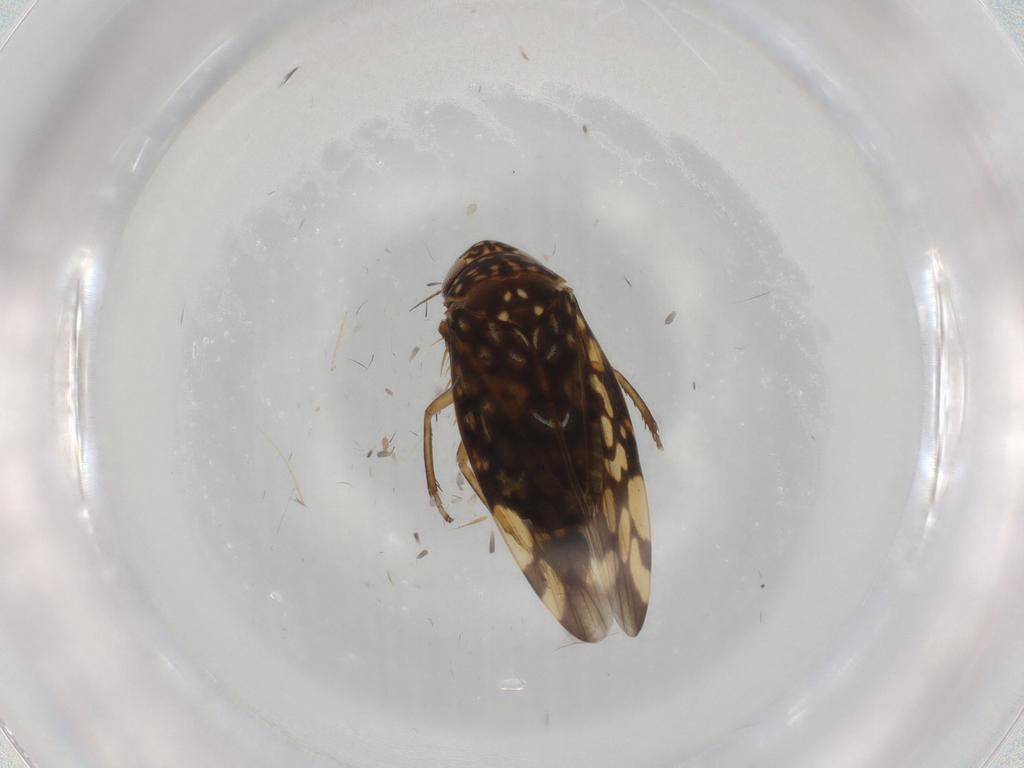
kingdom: Animalia
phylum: Arthropoda
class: Insecta
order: Hemiptera
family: Cicadellidae
